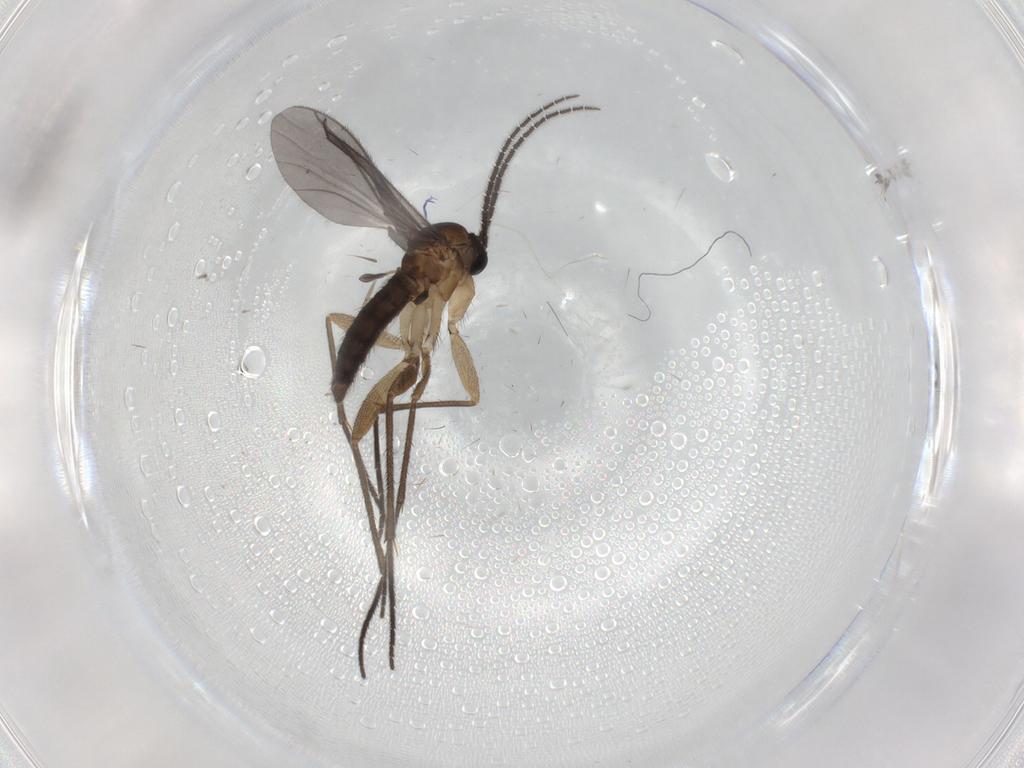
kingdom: Animalia
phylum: Arthropoda
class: Insecta
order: Diptera
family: Sciaridae
